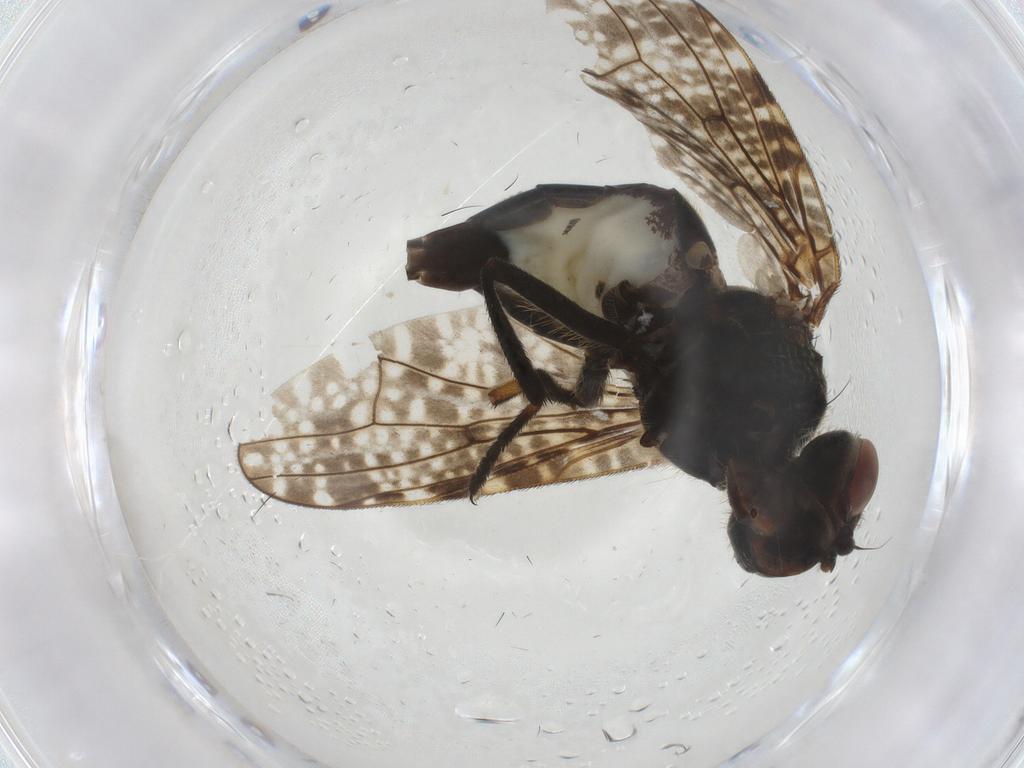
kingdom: Animalia
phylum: Arthropoda
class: Insecta
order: Diptera
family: Platystomatidae
